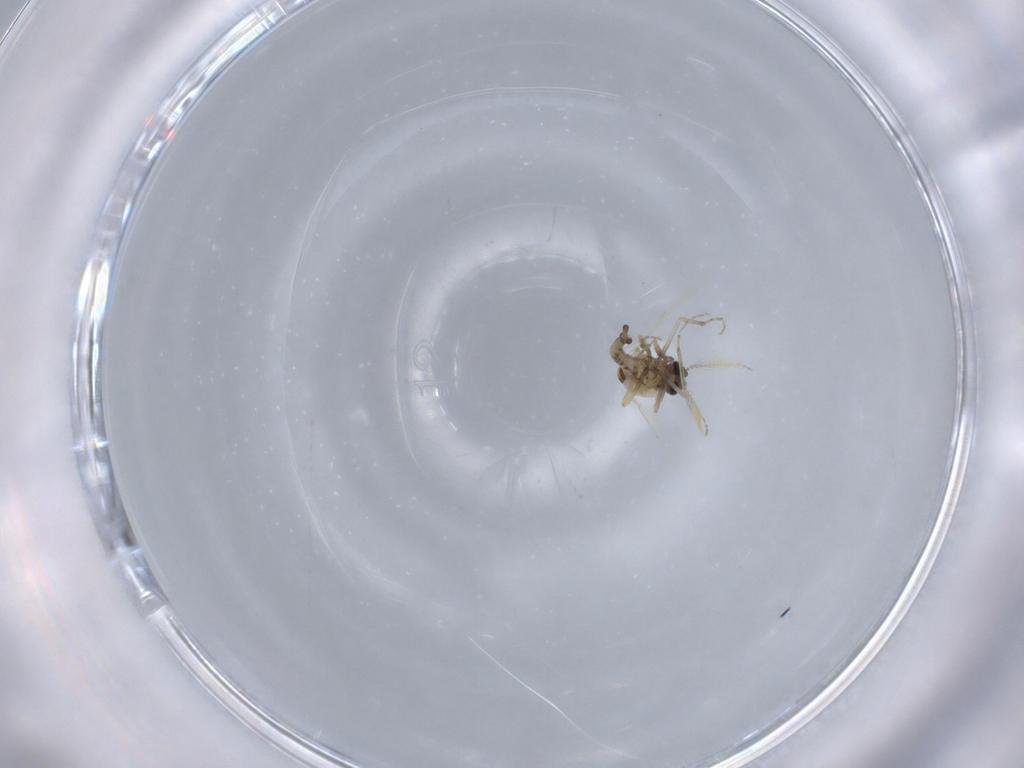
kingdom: Animalia
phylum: Arthropoda
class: Insecta
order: Diptera
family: Ceratopogonidae
